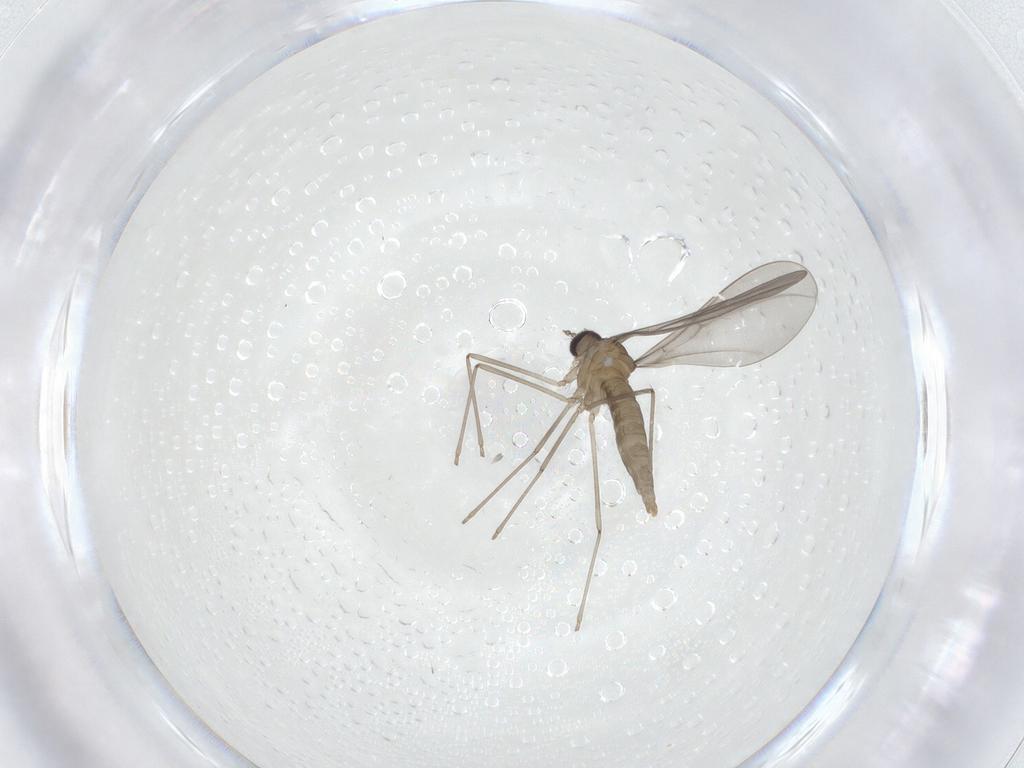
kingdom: Animalia
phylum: Arthropoda
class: Insecta
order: Diptera
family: Cecidomyiidae
